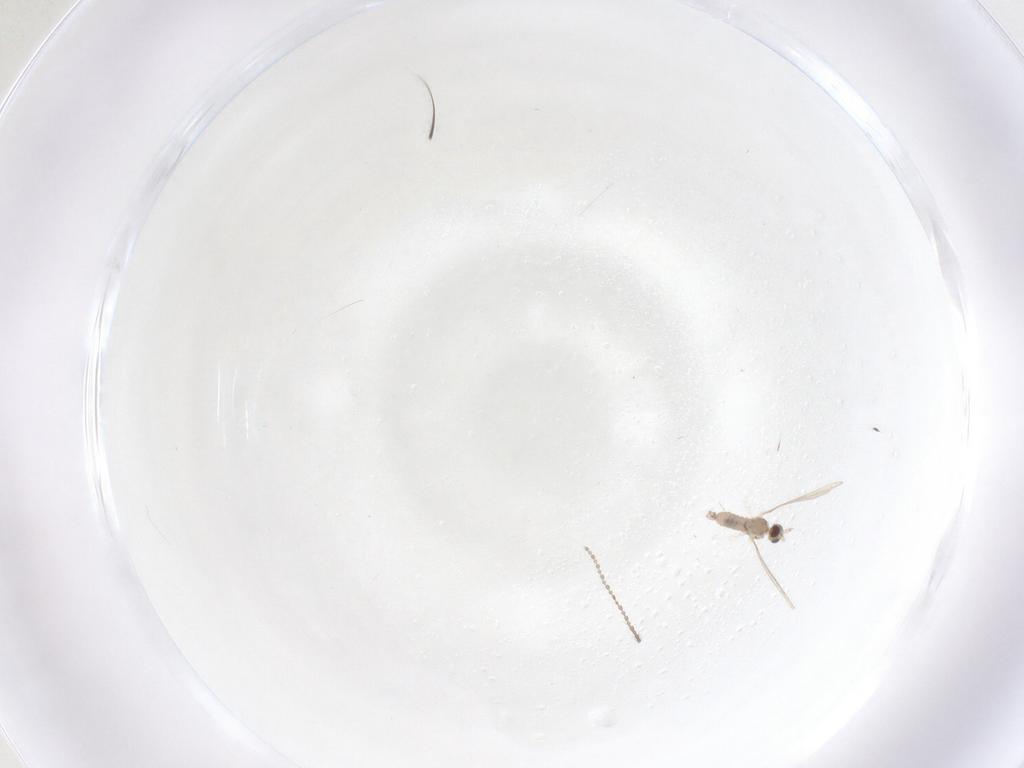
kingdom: Animalia
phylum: Arthropoda
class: Insecta
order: Diptera
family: Cecidomyiidae
